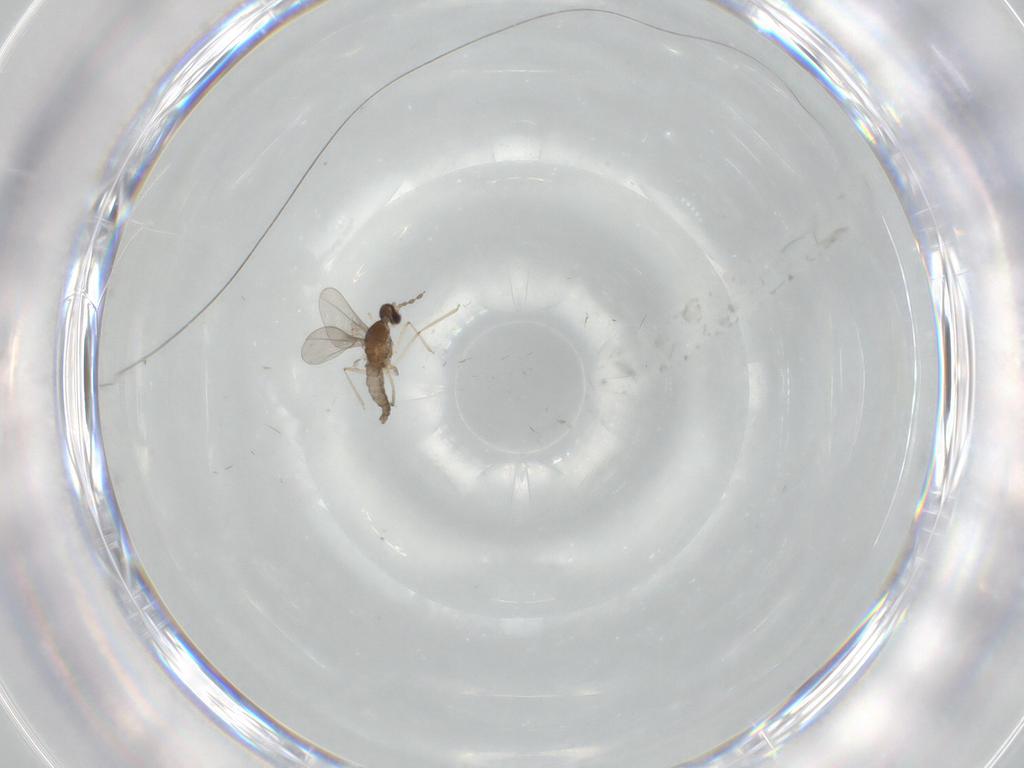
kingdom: Animalia
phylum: Arthropoda
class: Insecta
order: Diptera
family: Cecidomyiidae
